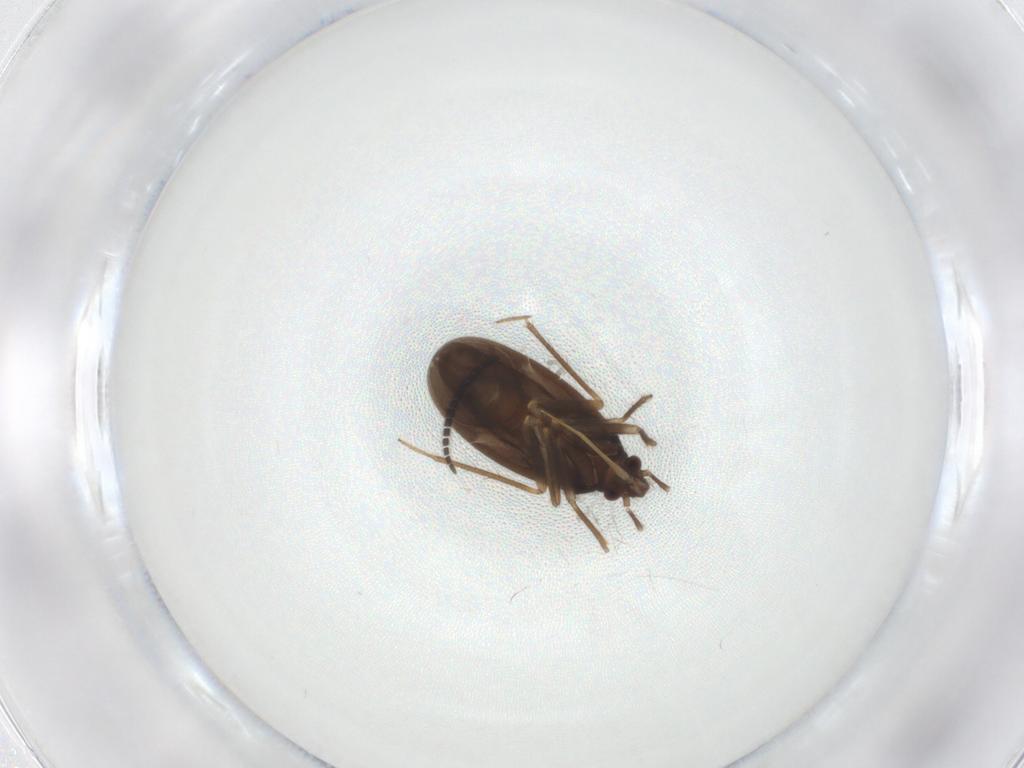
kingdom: Animalia
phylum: Arthropoda
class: Insecta
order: Hemiptera
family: Ceratocombidae
